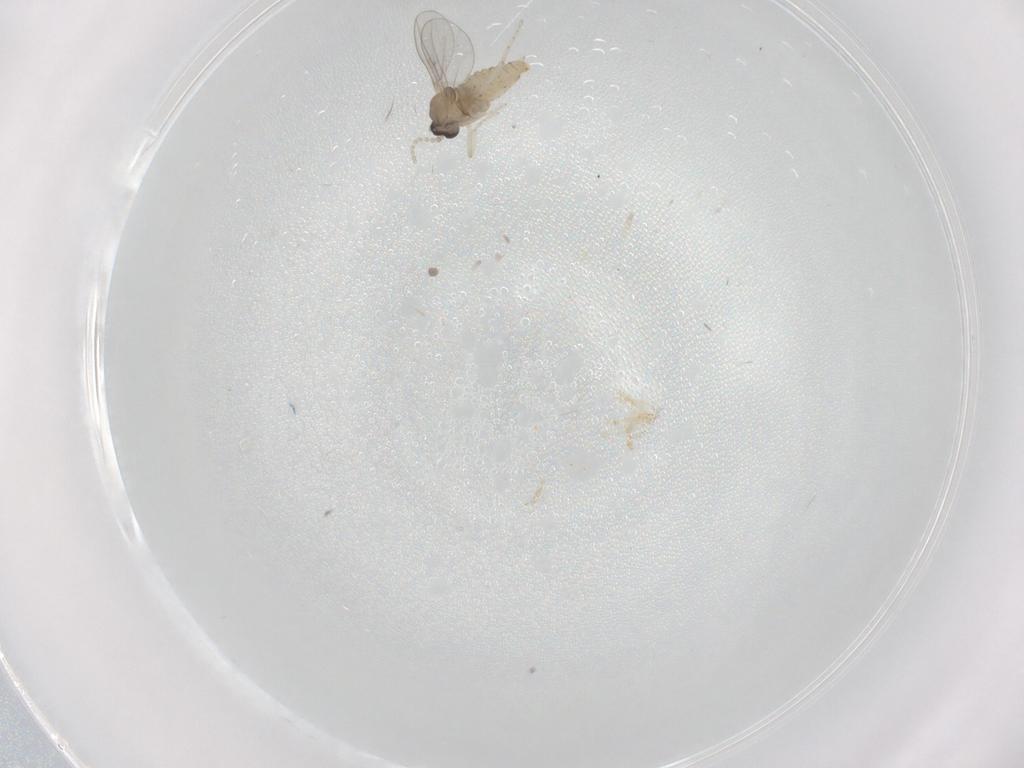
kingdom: Animalia
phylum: Arthropoda
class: Insecta
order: Diptera
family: Cecidomyiidae
